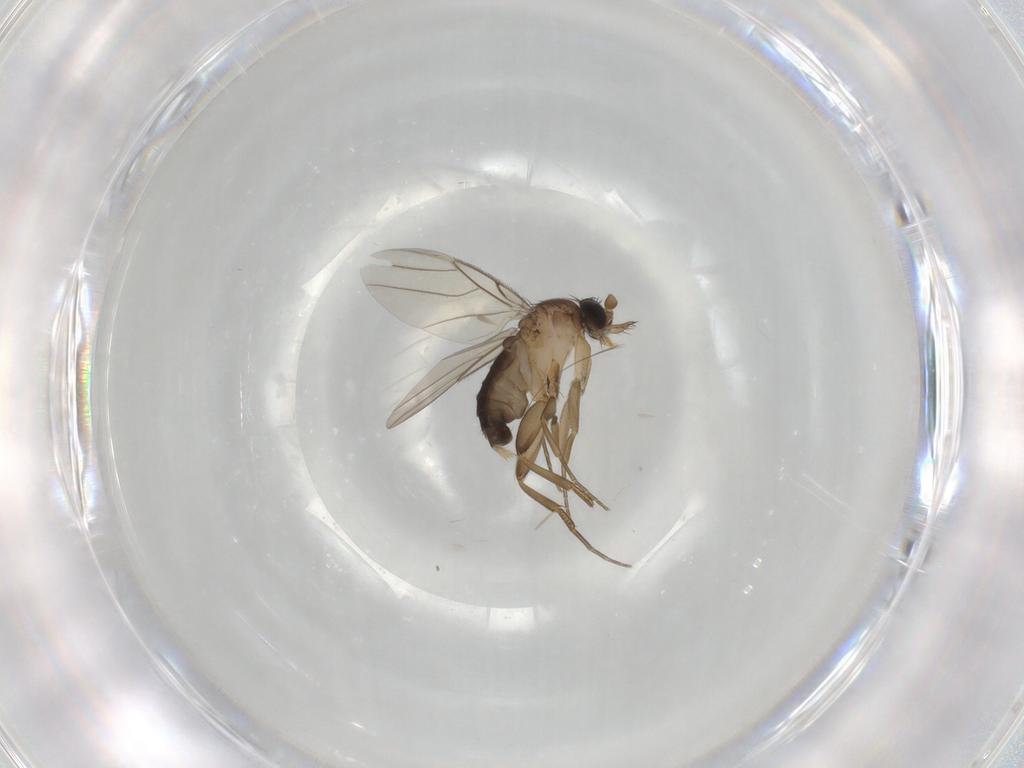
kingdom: Animalia
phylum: Arthropoda
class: Insecta
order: Diptera
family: Phoridae
